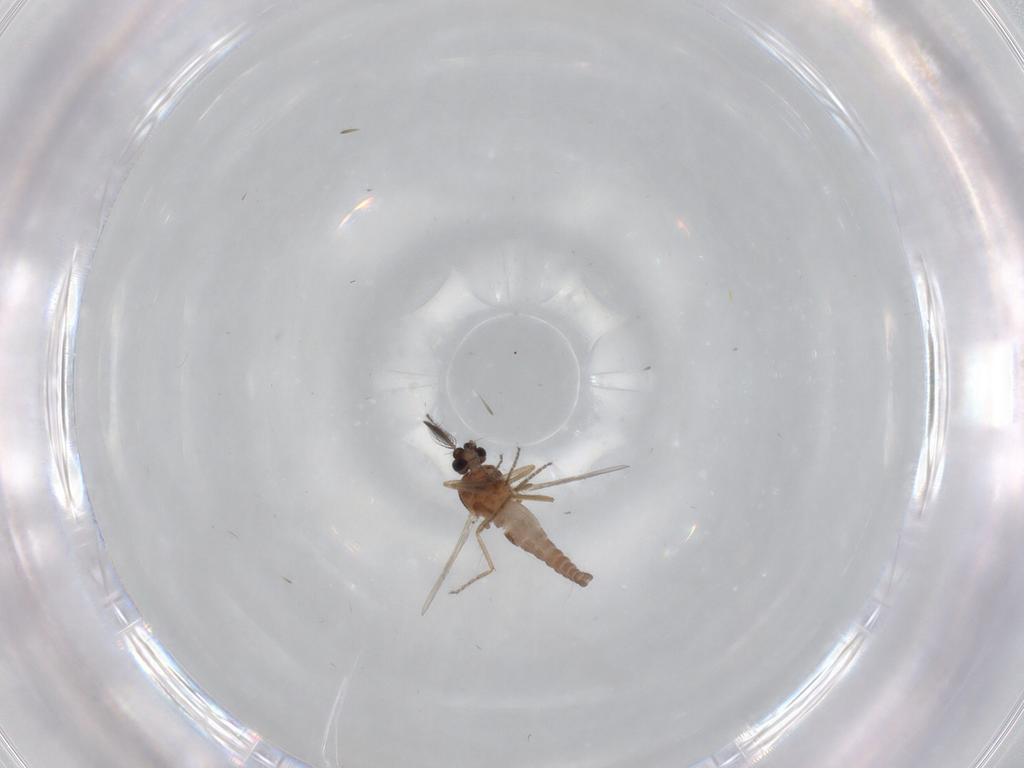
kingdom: Animalia
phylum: Arthropoda
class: Insecta
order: Diptera
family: Ceratopogonidae
